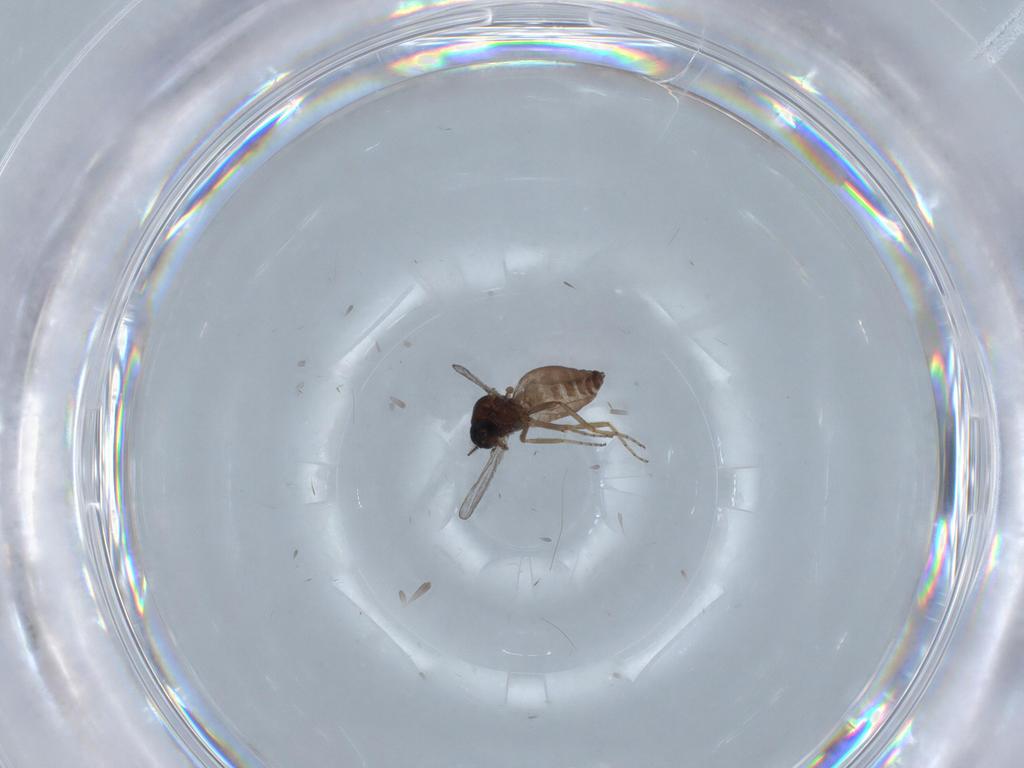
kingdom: Animalia
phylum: Arthropoda
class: Insecta
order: Diptera
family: Ceratopogonidae
